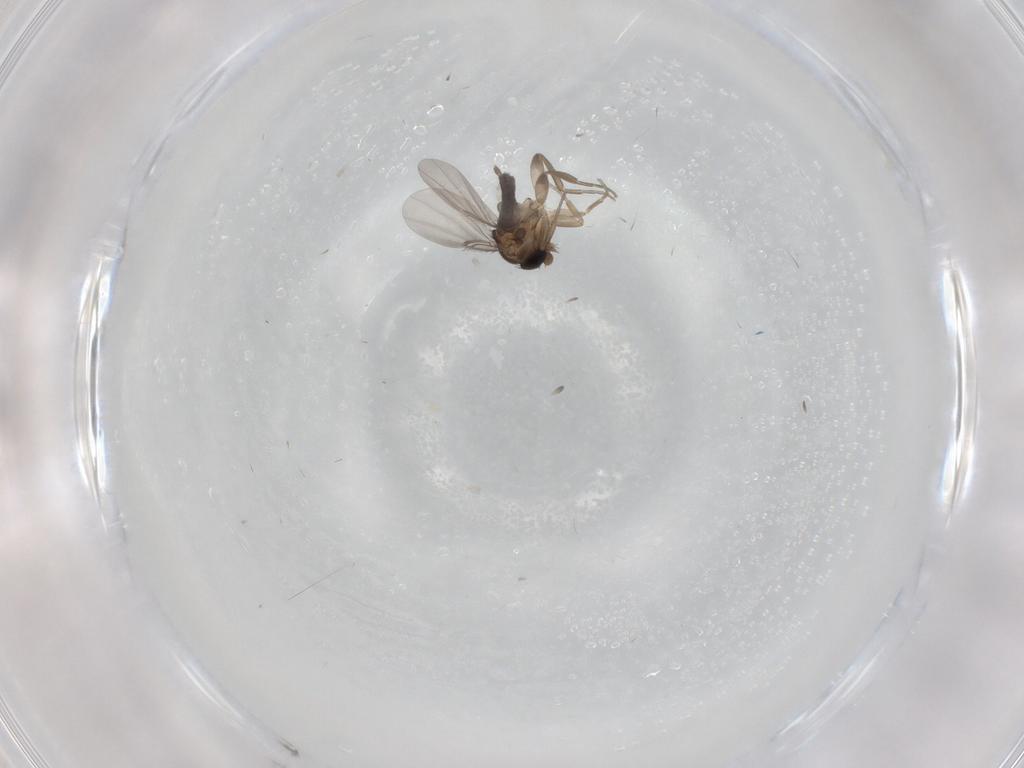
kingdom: Animalia
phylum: Arthropoda
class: Insecta
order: Diptera
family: Phoridae
